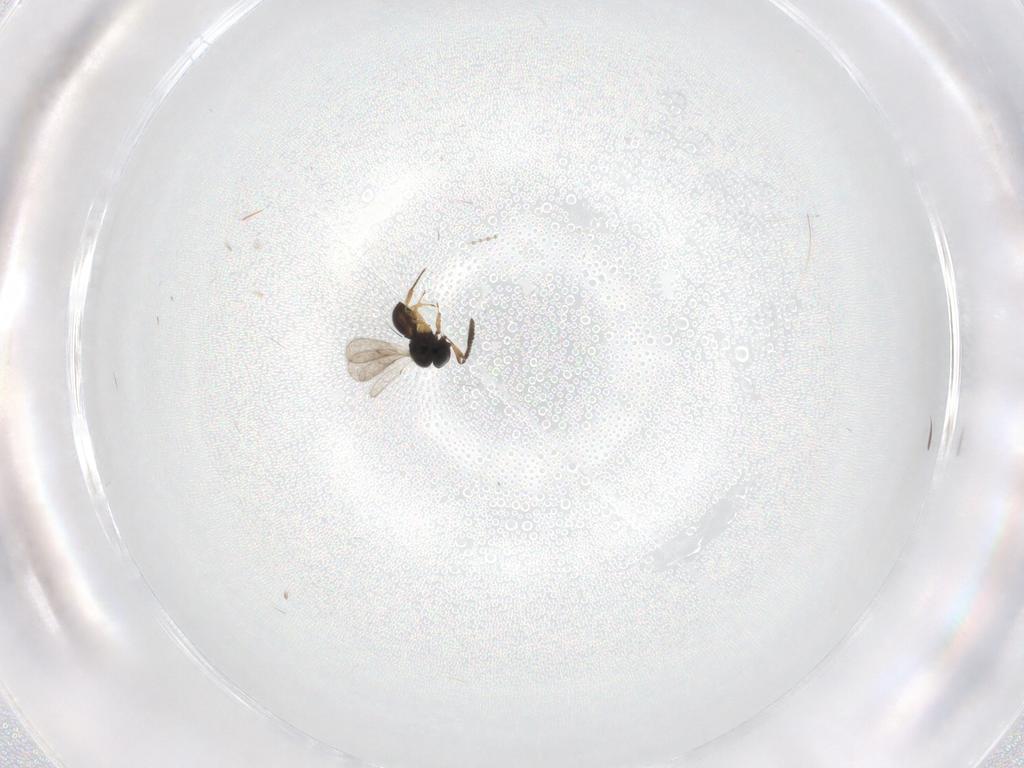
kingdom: Animalia
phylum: Arthropoda
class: Insecta
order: Hymenoptera
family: Scelionidae
